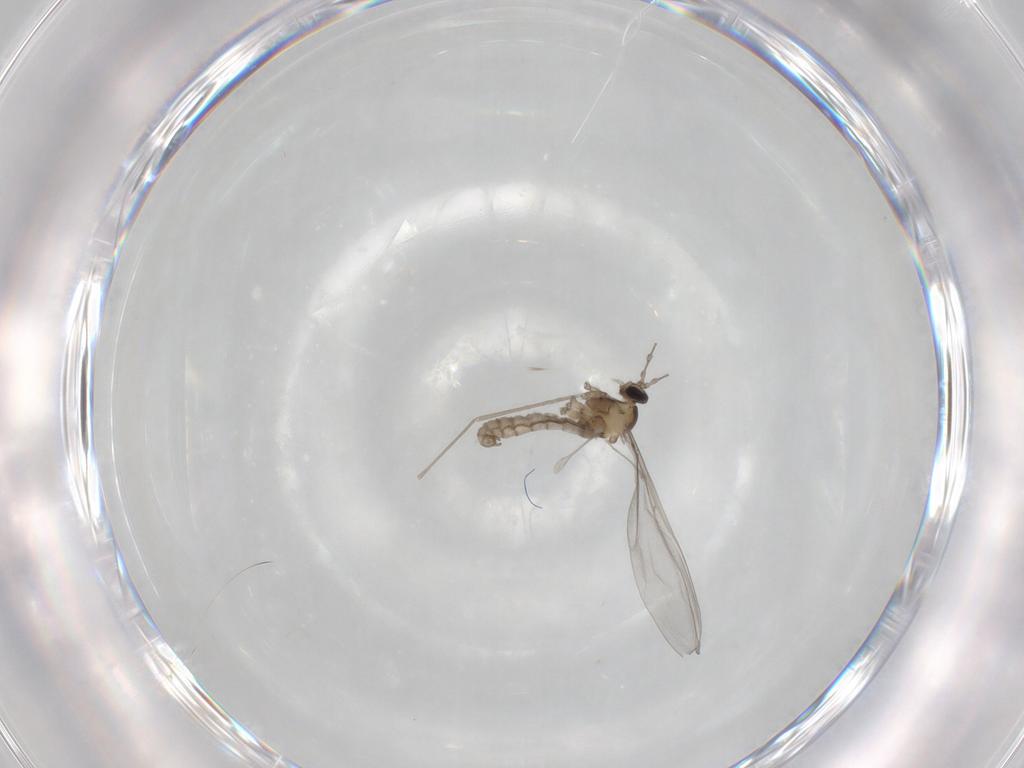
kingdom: Animalia
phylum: Arthropoda
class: Insecta
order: Diptera
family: Cecidomyiidae
